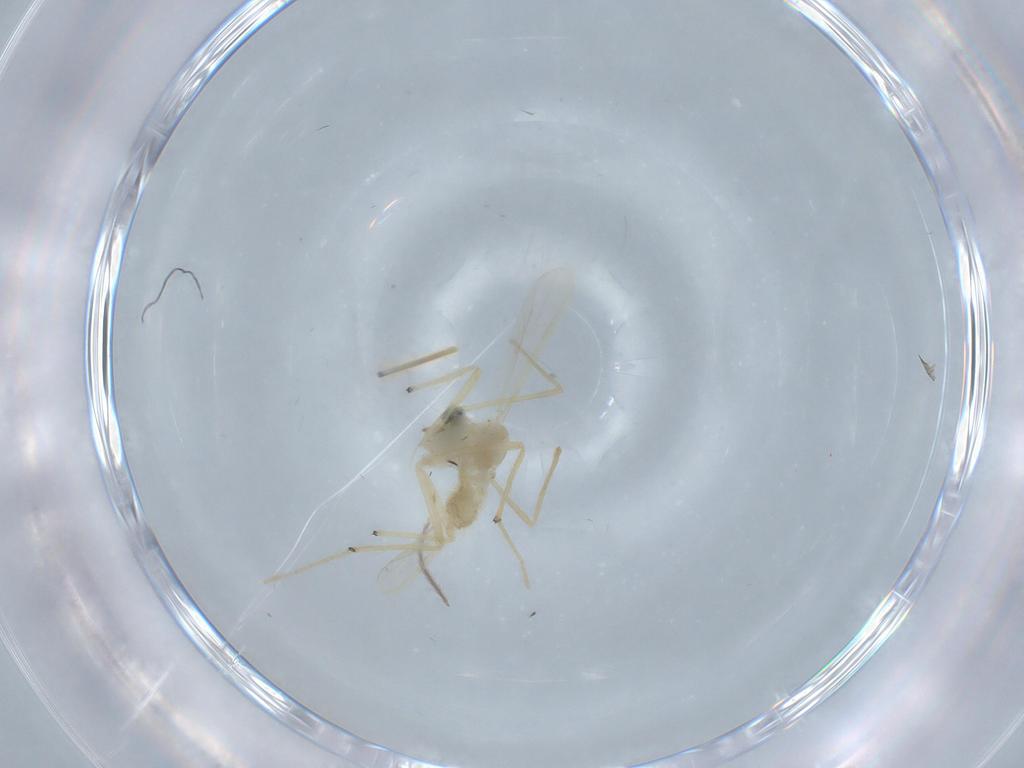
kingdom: Animalia
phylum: Arthropoda
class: Insecta
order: Diptera
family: Chironomidae
